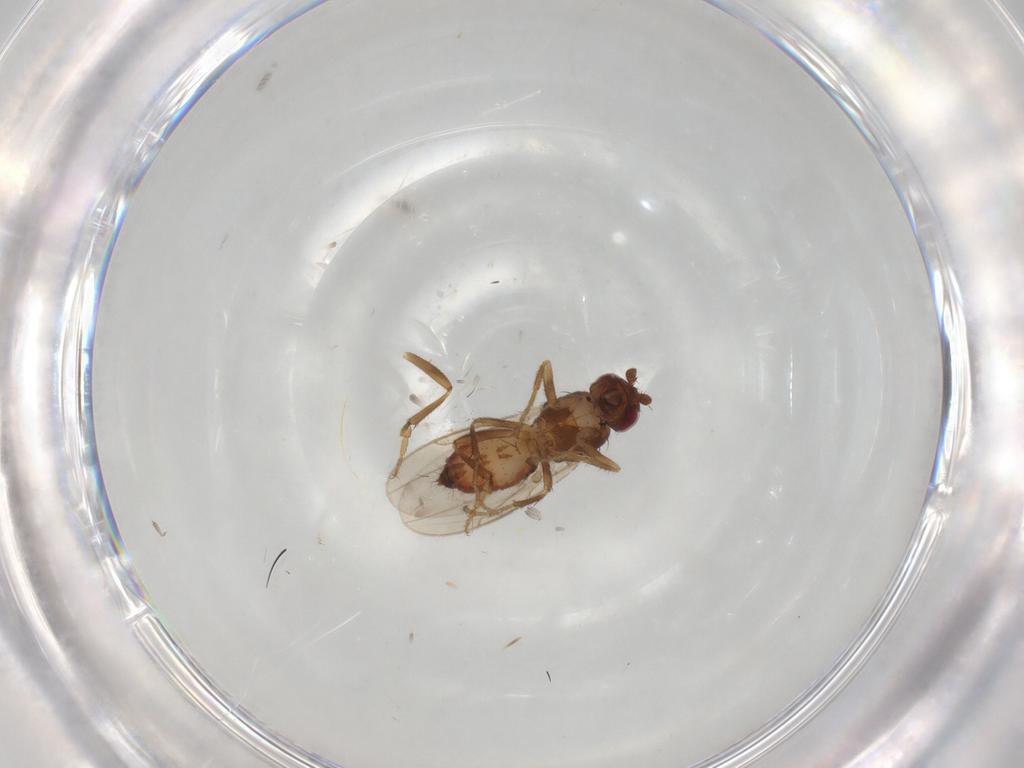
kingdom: Animalia
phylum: Arthropoda
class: Insecta
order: Diptera
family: Sphaeroceridae
